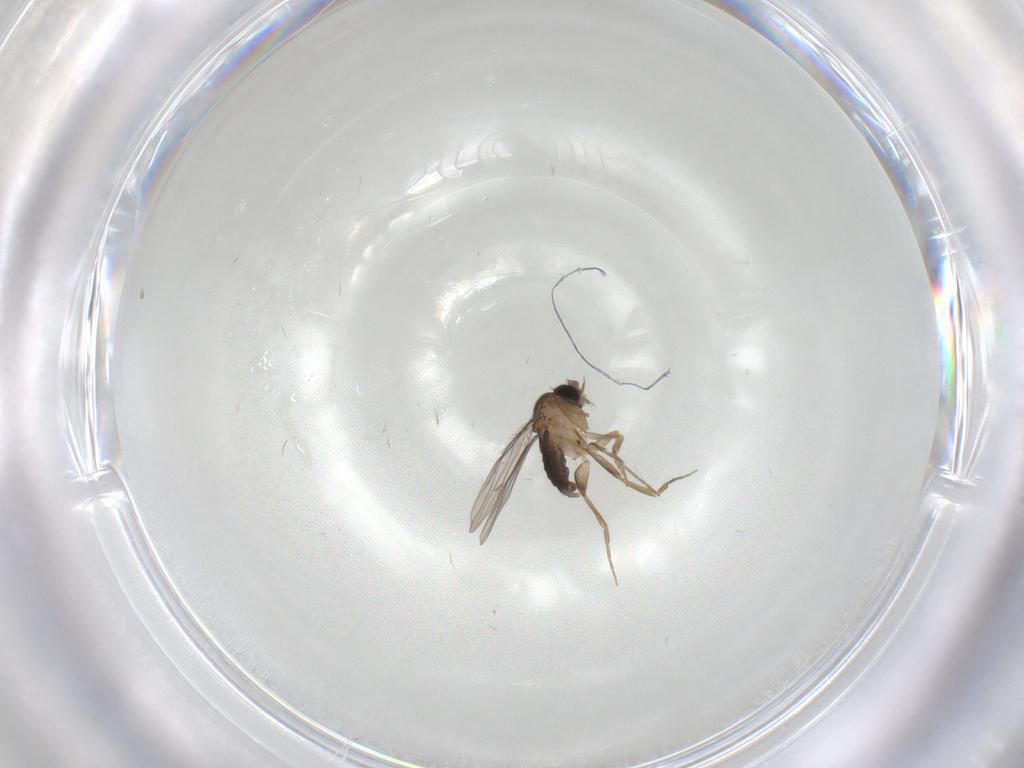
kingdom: Animalia
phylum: Arthropoda
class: Insecta
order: Diptera
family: Phoridae
